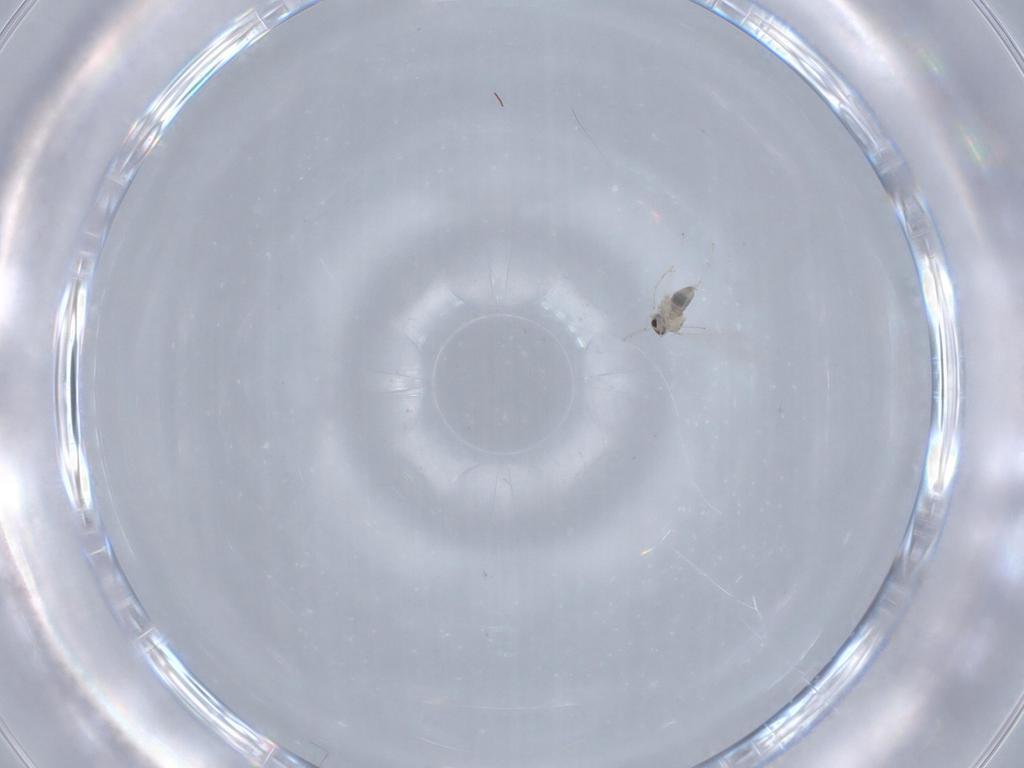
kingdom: Animalia
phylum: Arthropoda
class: Insecta
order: Diptera
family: Cecidomyiidae
